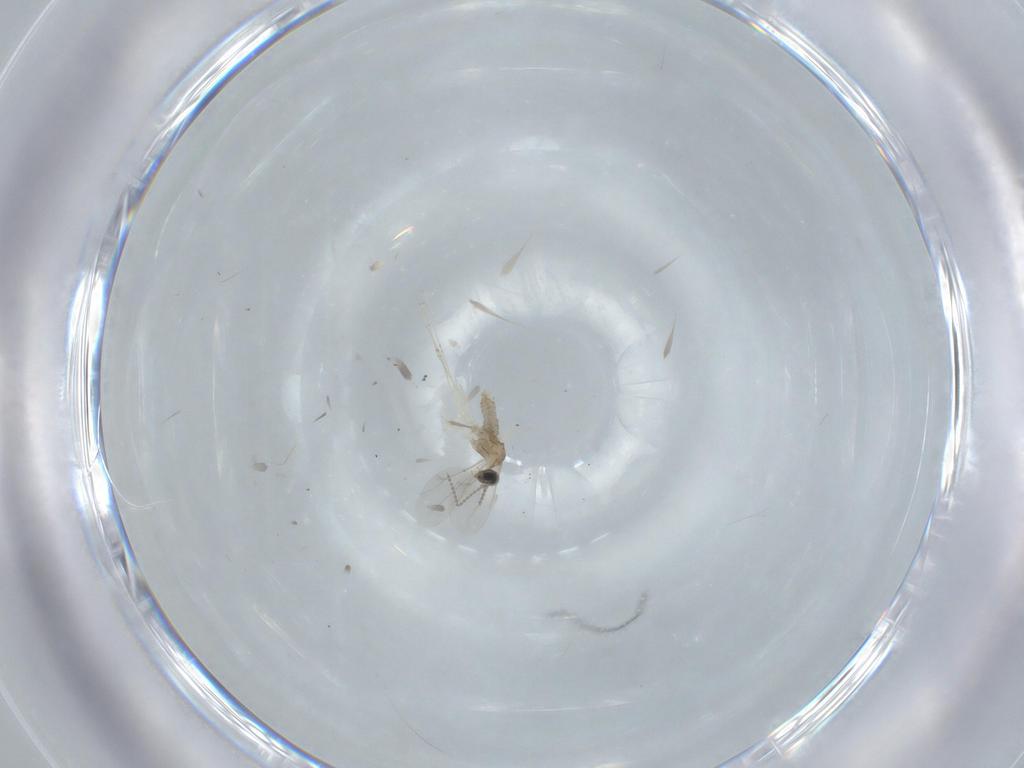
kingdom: Animalia
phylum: Arthropoda
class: Insecta
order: Diptera
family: Cecidomyiidae
